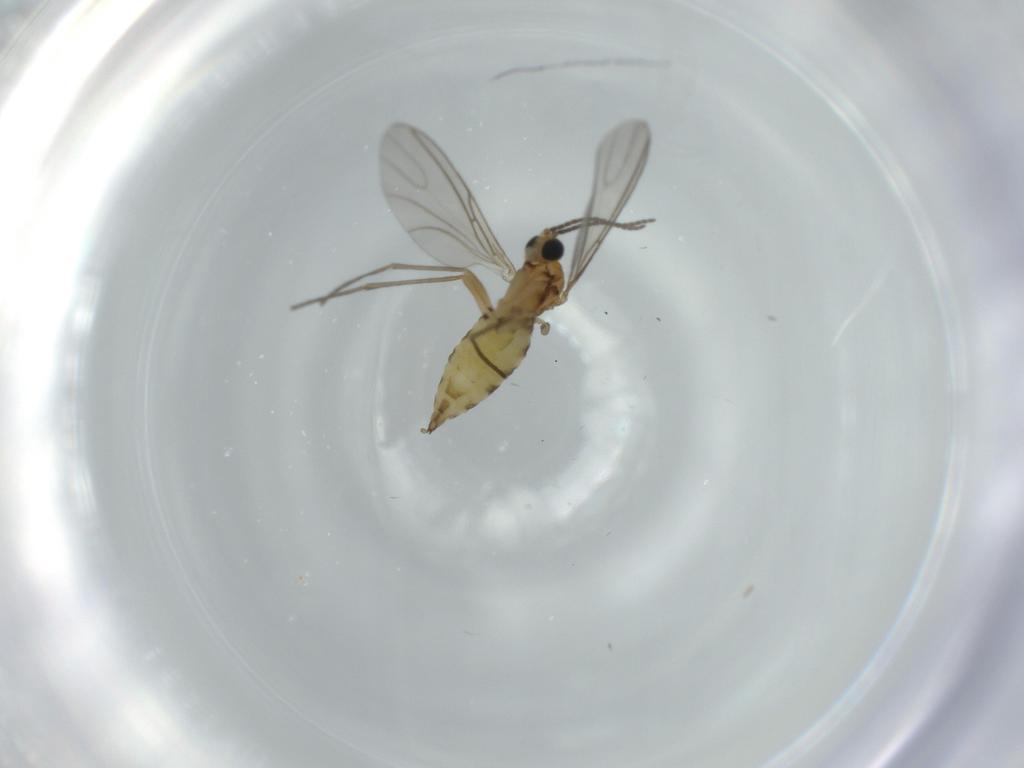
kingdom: Animalia
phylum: Arthropoda
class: Insecta
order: Diptera
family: Sciaridae
